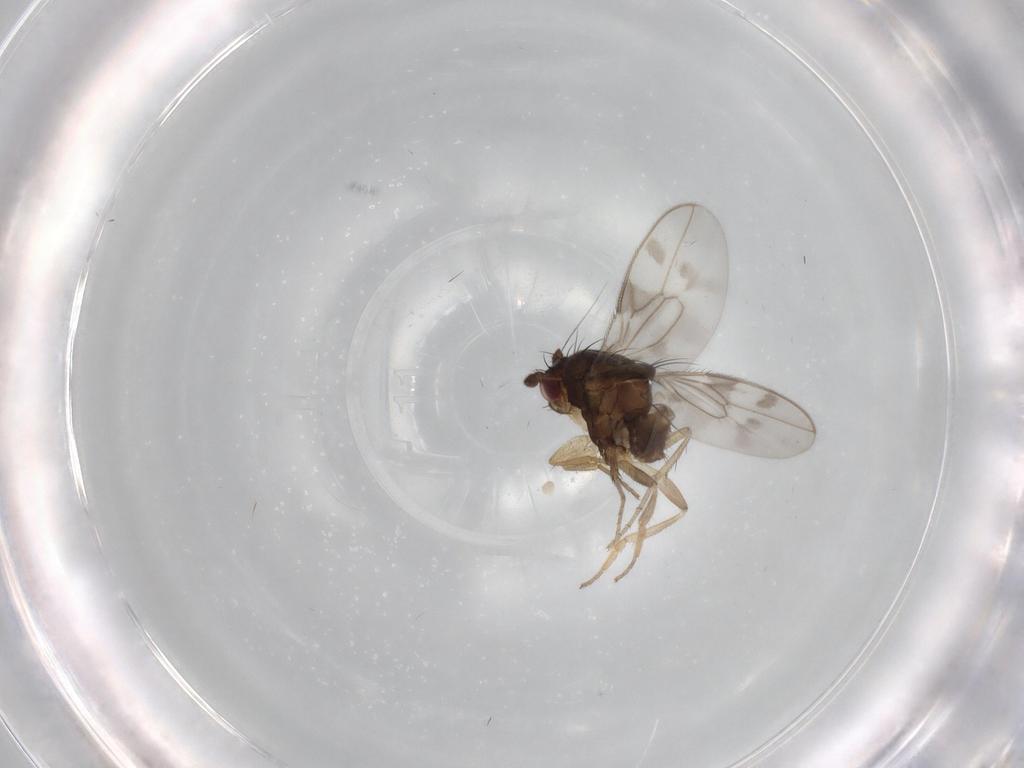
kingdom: Animalia
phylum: Arthropoda
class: Insecta
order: Diptera
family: Sphaeroceridae
